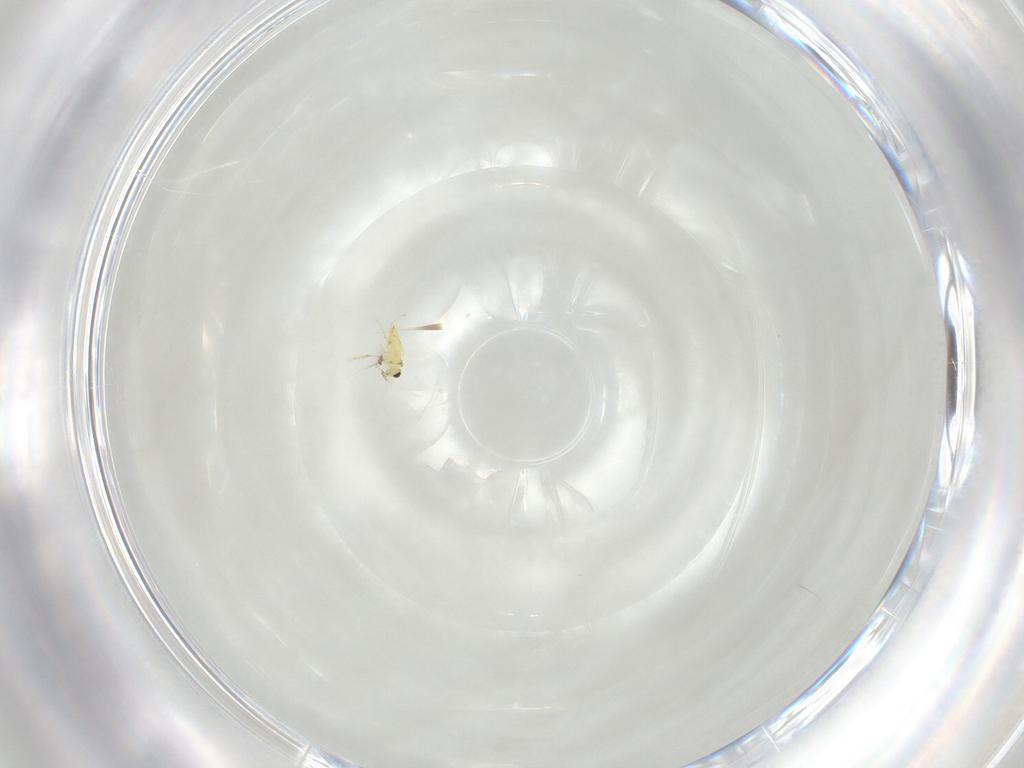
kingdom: Animalia
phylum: Arthropoda
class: Insecta
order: Hymenoptera
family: Mymaridae
